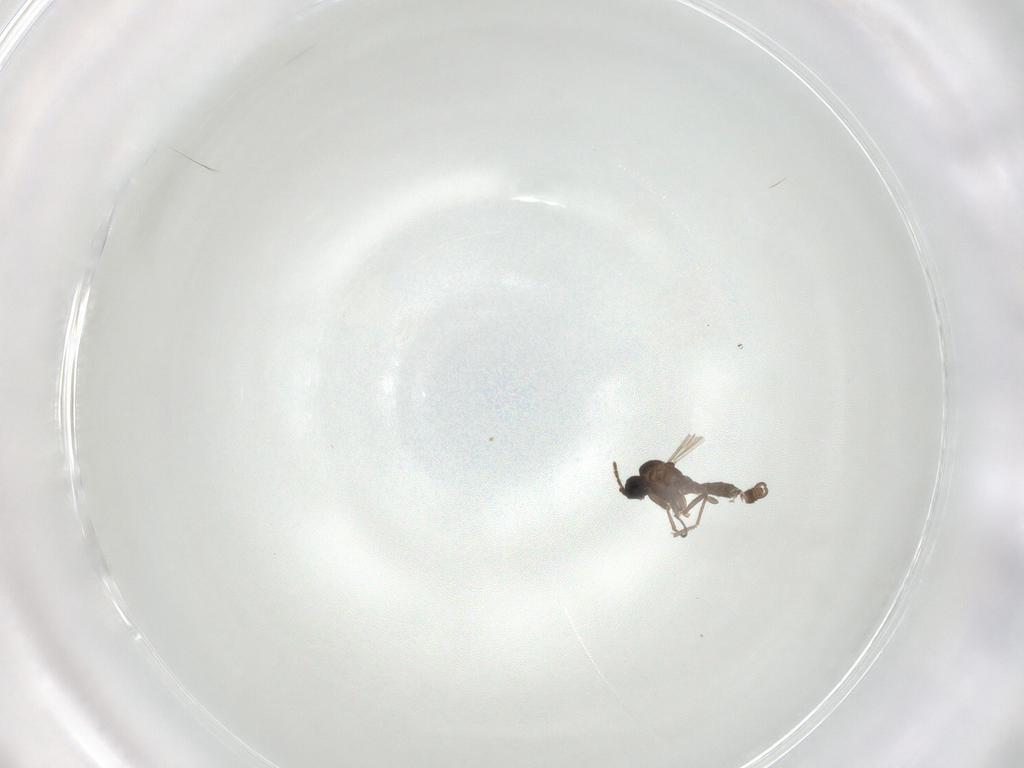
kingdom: Animalia
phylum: Arthropoda
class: Insecta
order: Diptera
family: Sciaridae
